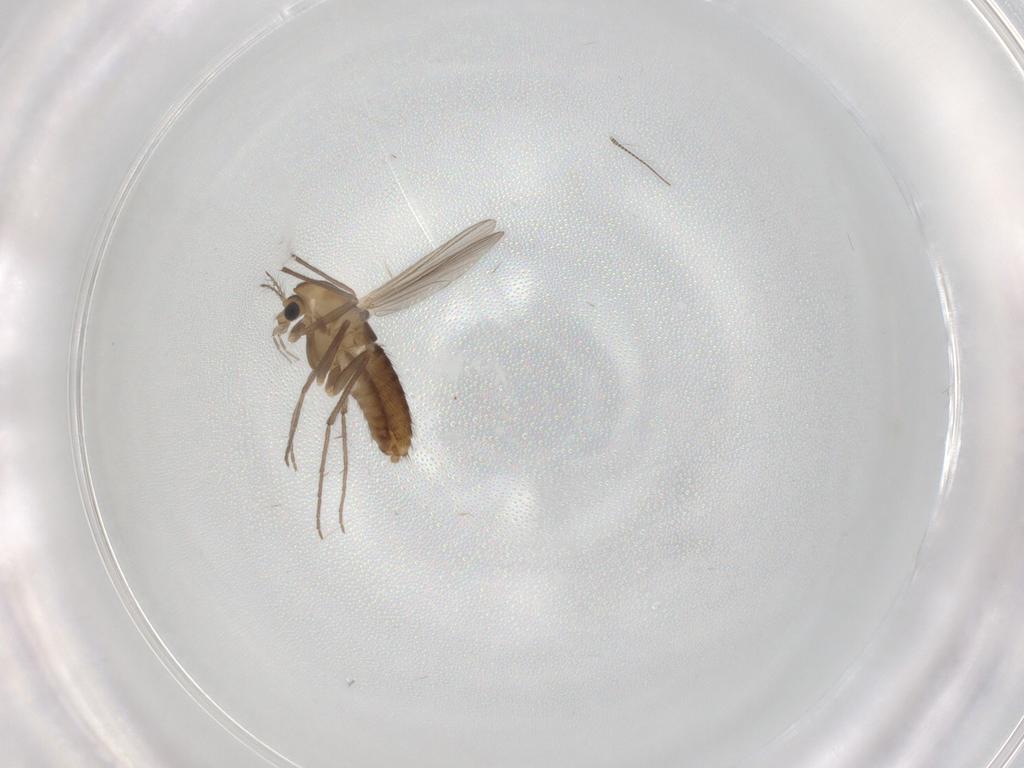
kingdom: Animalia
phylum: Arthropoda
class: Insecta
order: Diptera
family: Chironomidae
